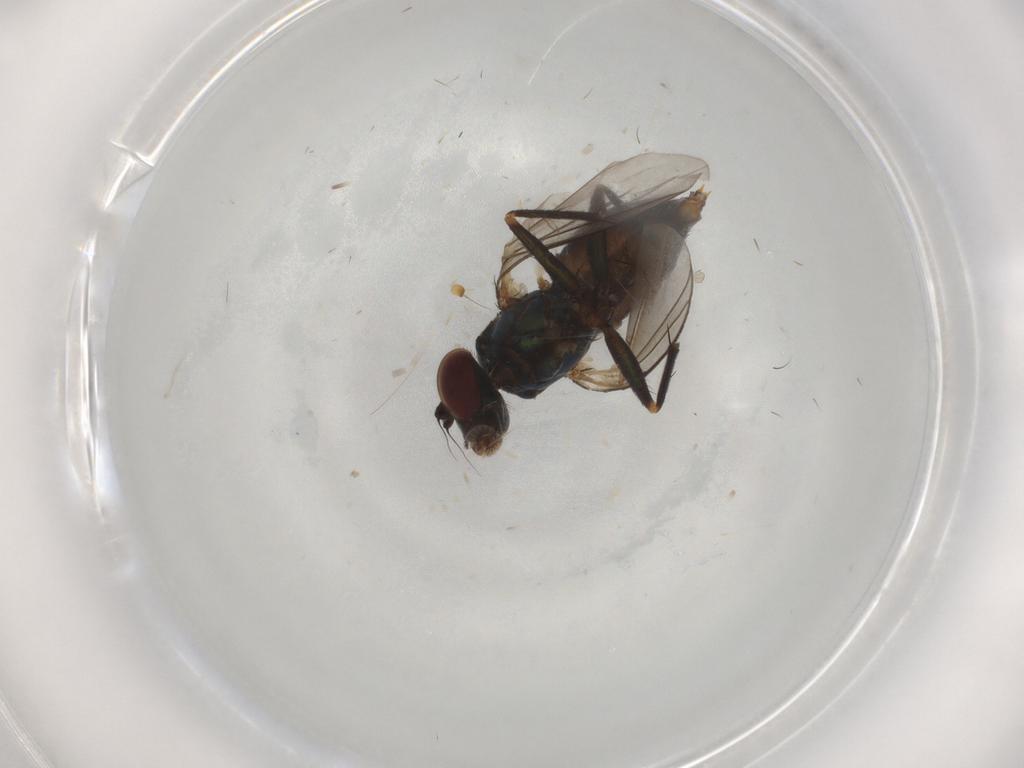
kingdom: Animalia
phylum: Arthropoda
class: Insecta
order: Diptera
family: Dolichopodidae
